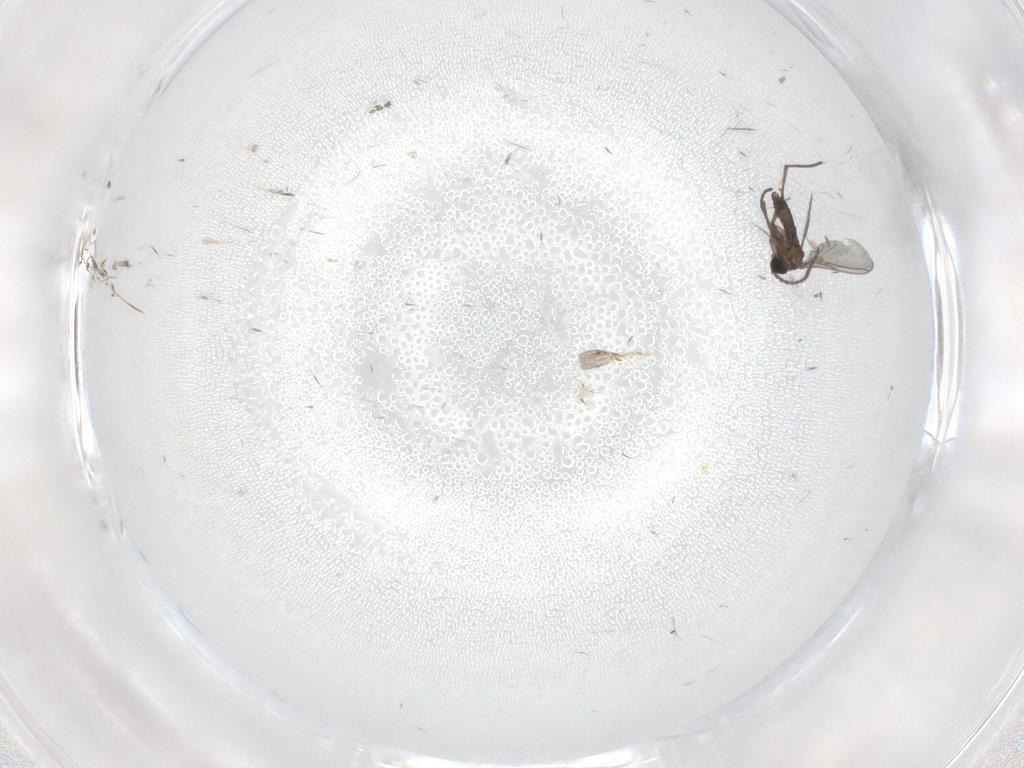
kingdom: Animalia
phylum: Arthropoda
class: Insecta
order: Diptera
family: Sciaridae
